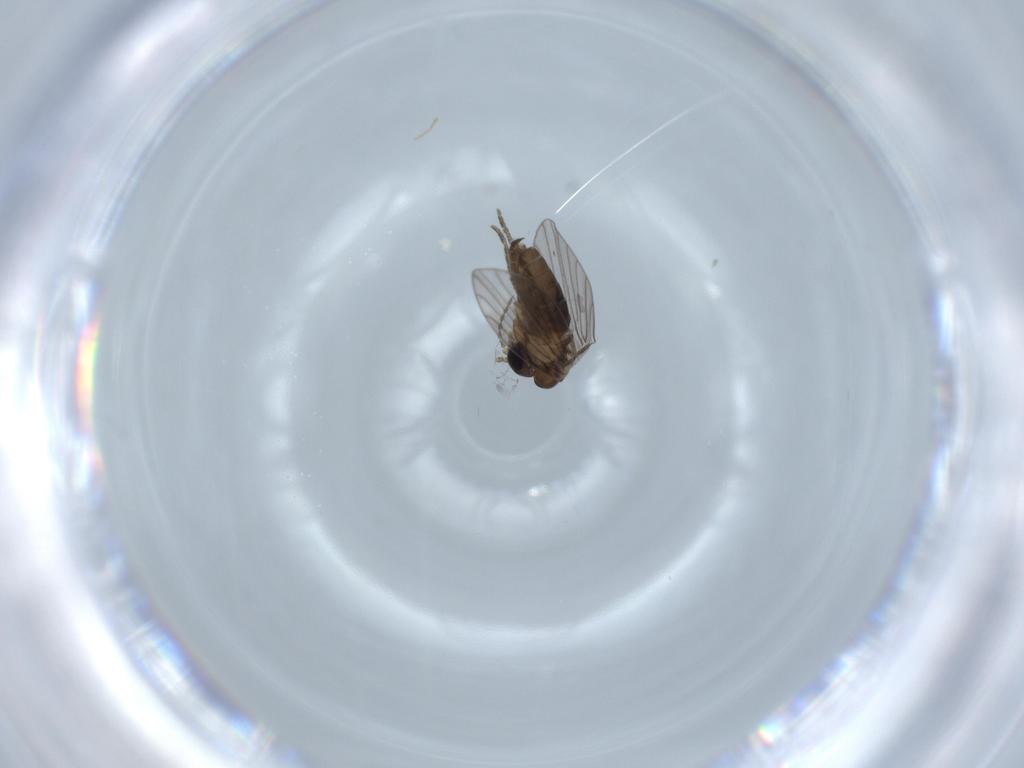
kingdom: Animalia
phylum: Arthropoda
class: Insecta
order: Diptera
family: Psychodidae
